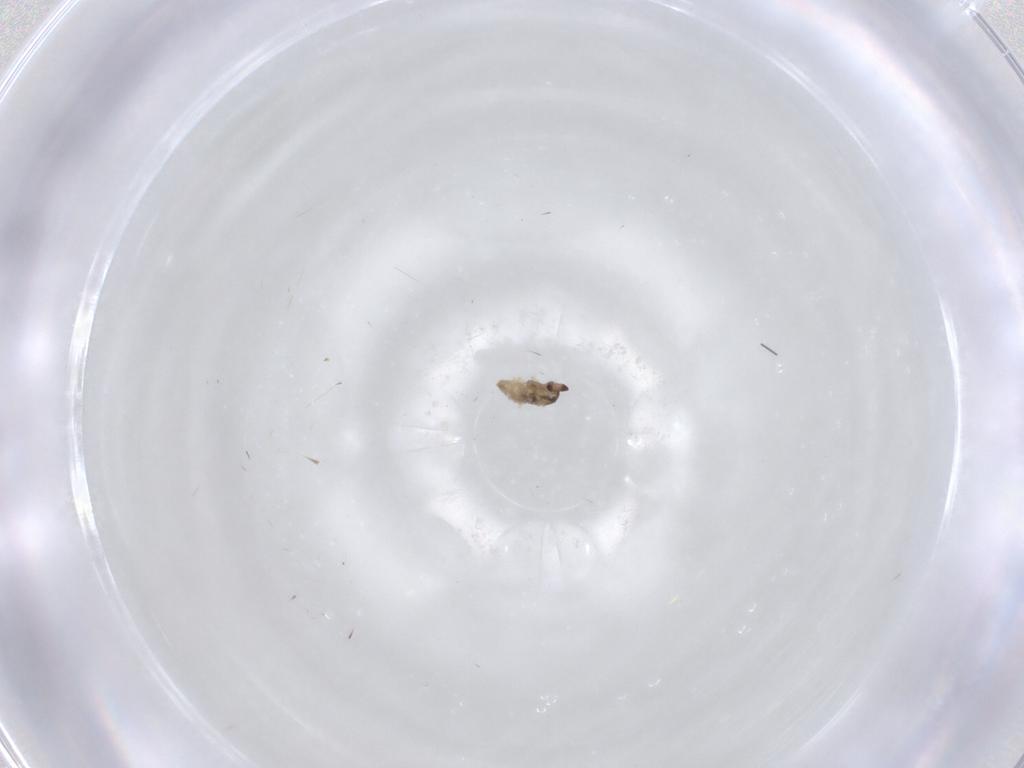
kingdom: Animalia
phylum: Arthropoda
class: Insecta
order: Diptera
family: Cecidomyiidae
